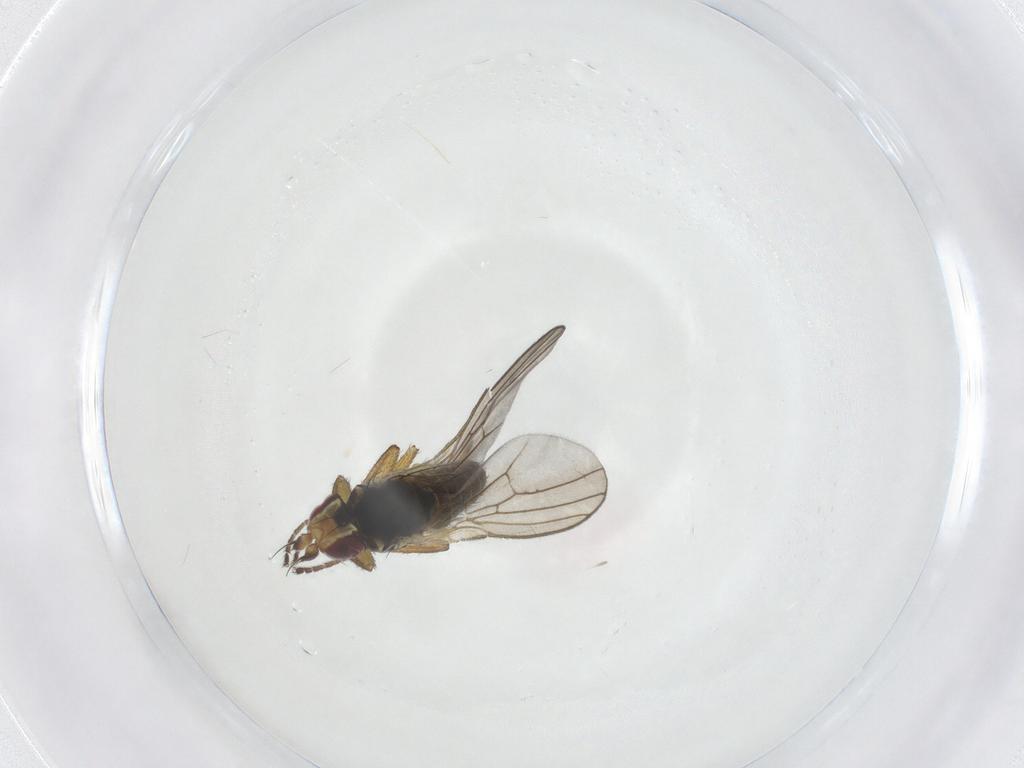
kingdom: Animalia
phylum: Arthropoda
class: Insecta
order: Diptera
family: Agromyzidae
